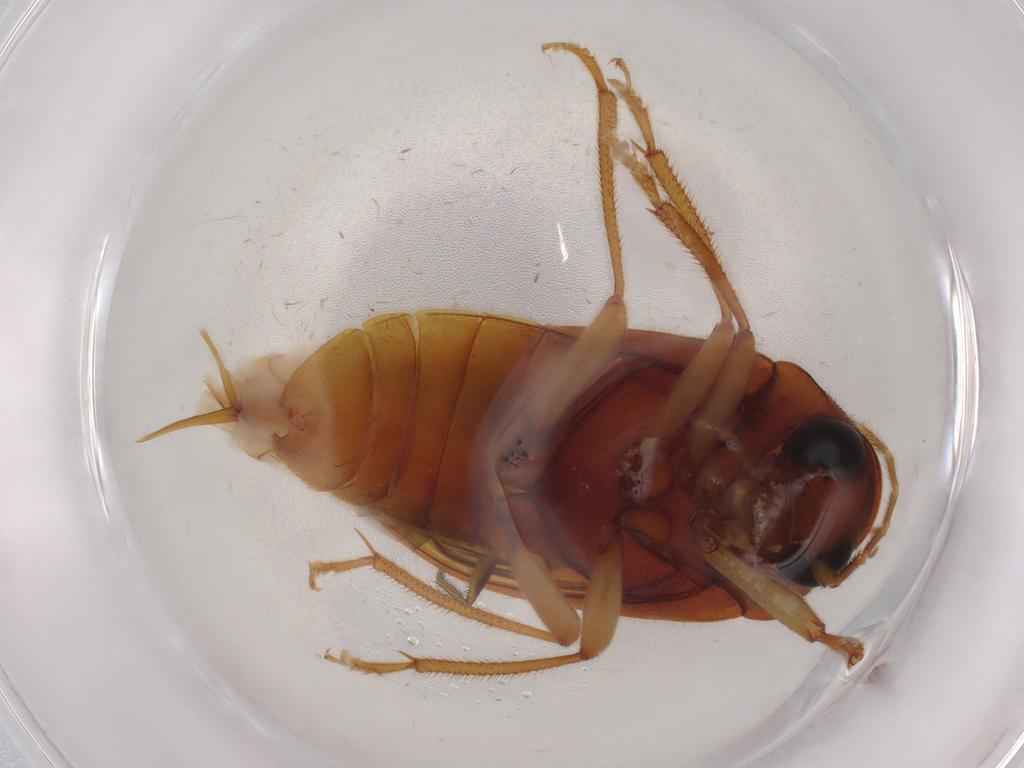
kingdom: Animalia
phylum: Arthropoda
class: Insecta
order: Coleoptera
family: Ptilodactylidae
